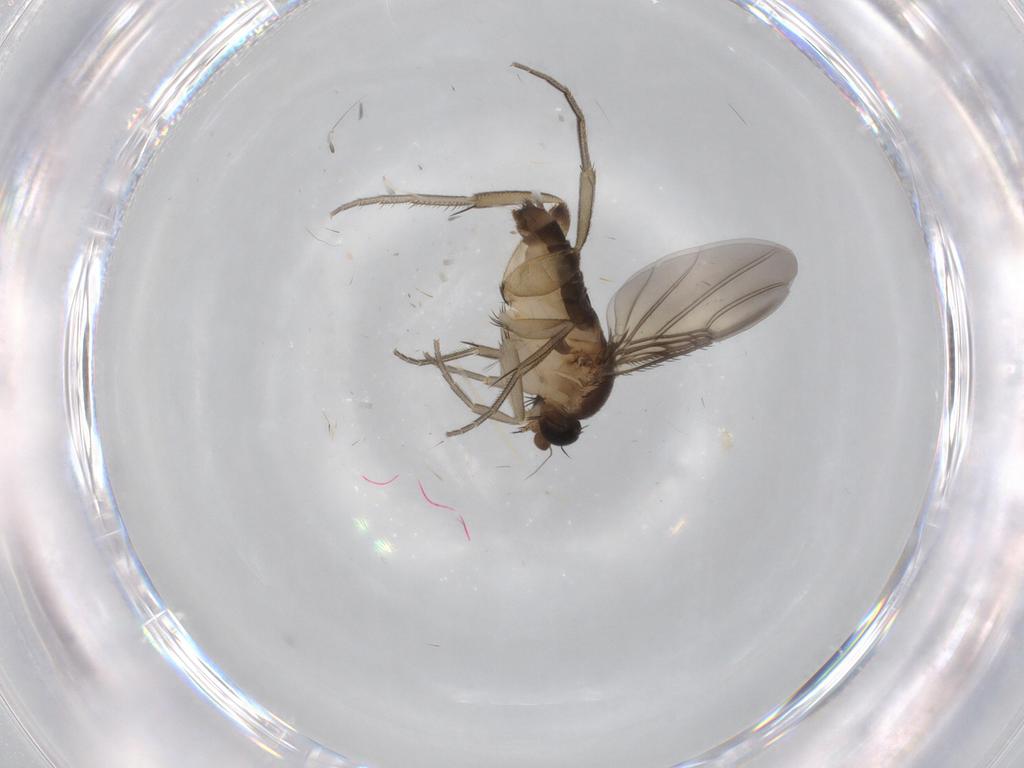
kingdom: Animalia
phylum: Arthropoda
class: Insecta
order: Diptera
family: Phoridae
